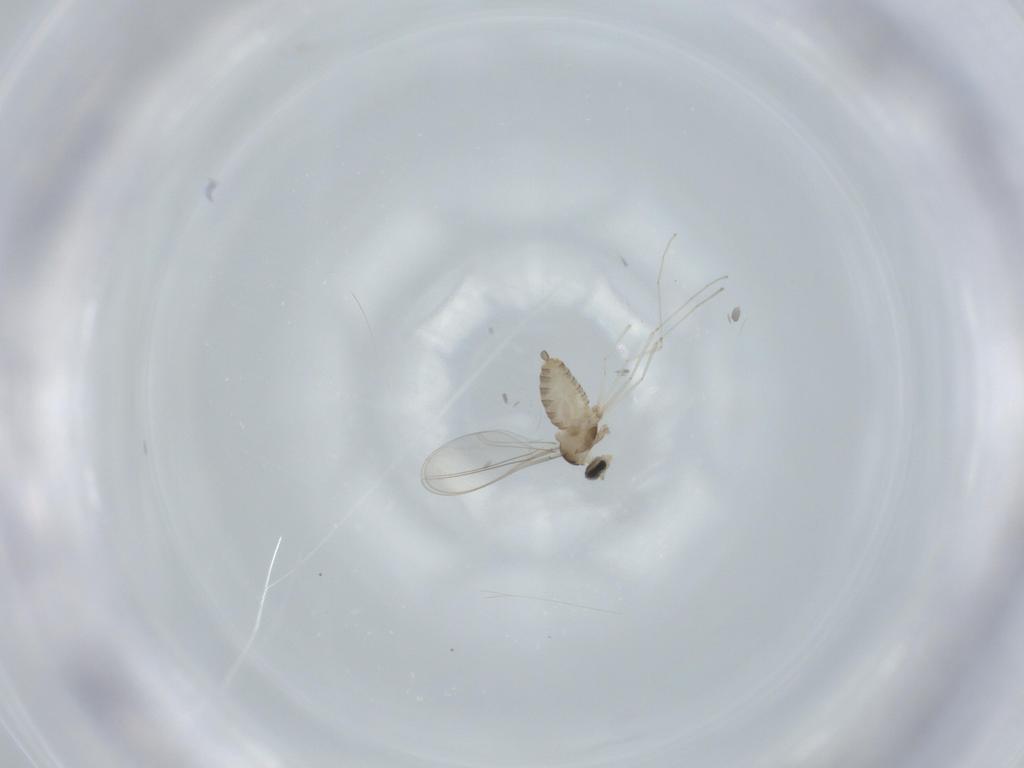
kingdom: Animalia
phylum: Arthropoda
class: Insecta
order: Diptera
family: Cecidomyiidae
